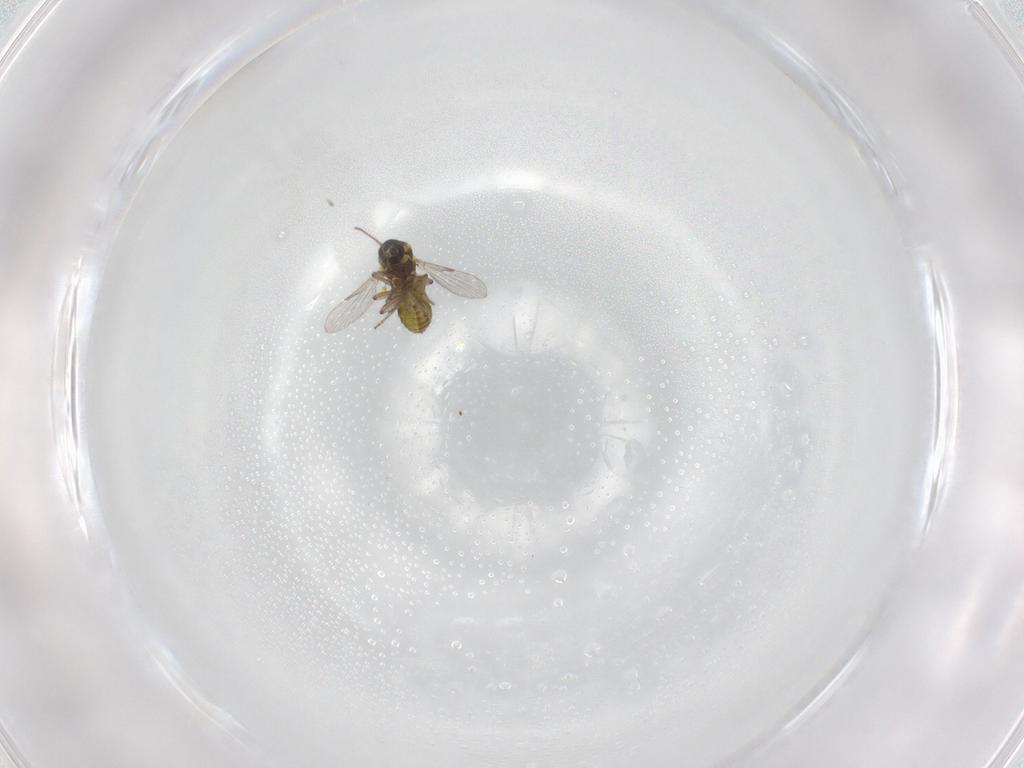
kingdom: Animalia
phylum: Arthropoda
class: Insecta
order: Diptera
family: Ceratopogonidae
